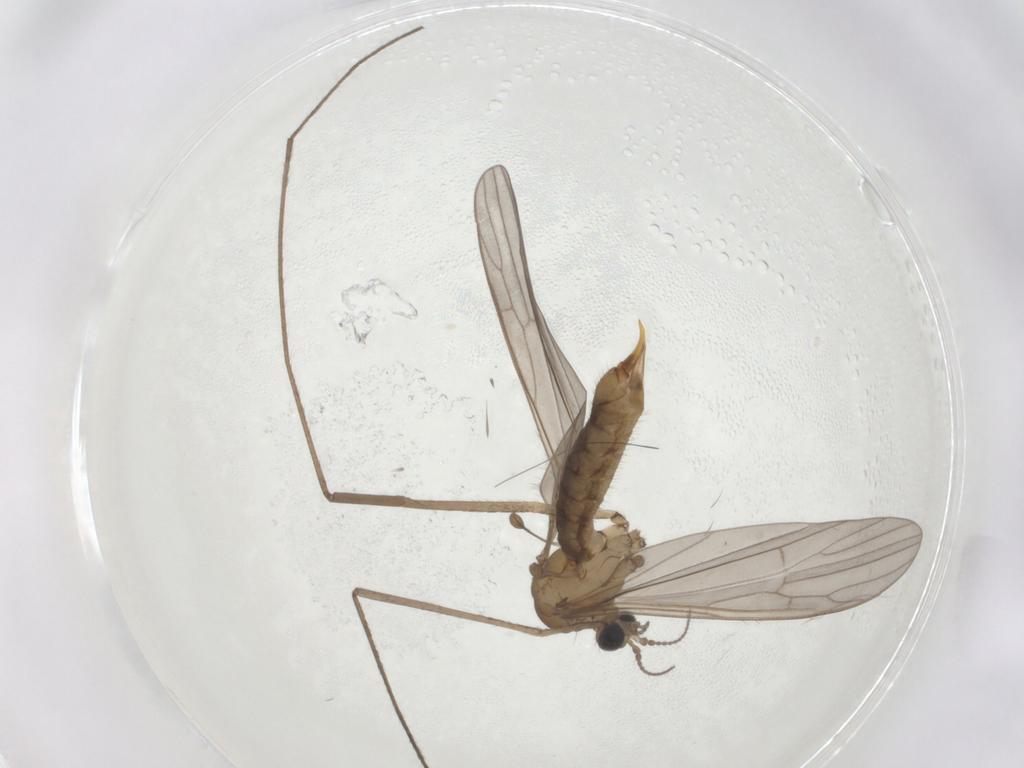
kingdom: Animalia
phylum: Arthropoda
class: Insecta
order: Diptera
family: Limoniidae
